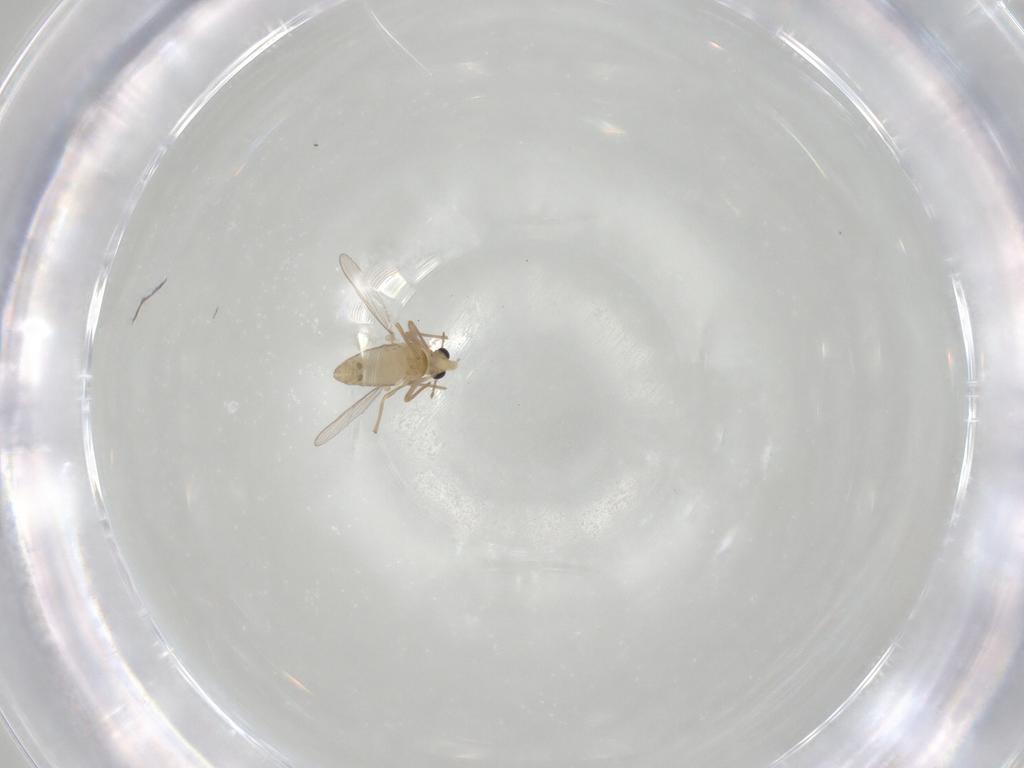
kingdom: Animalia
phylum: Arthropoda
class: Insecta
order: Diptera
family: Chironomidae
